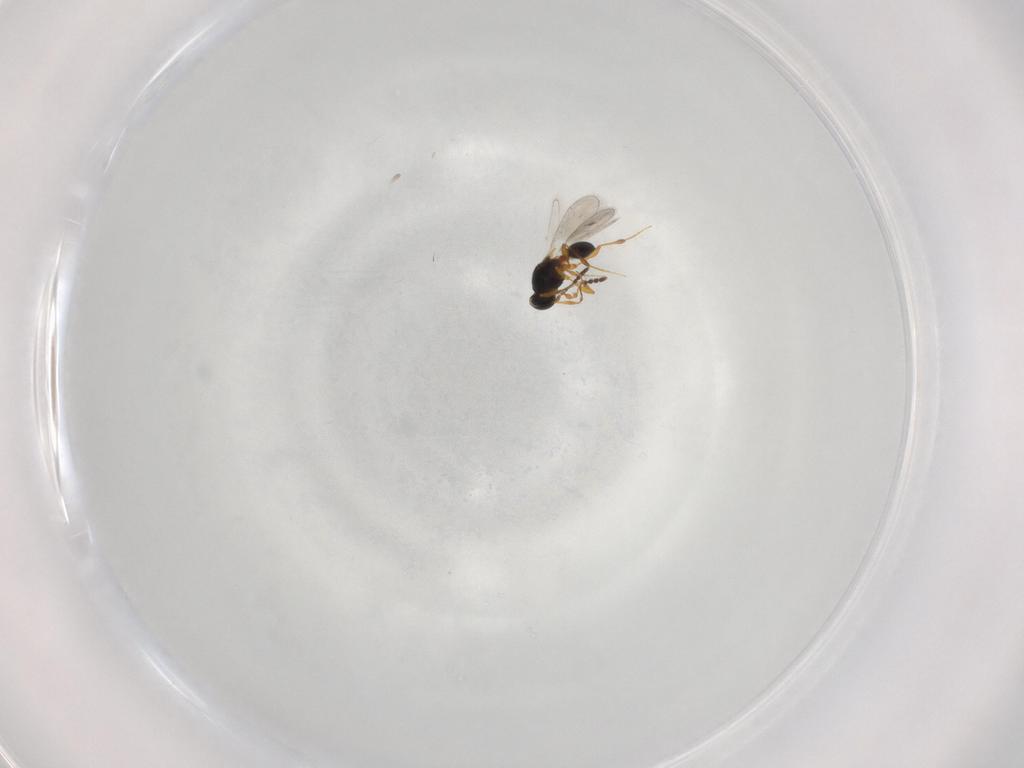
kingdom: Animalia
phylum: Arthropoda
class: Insecta
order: Hymenoptera
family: Platygastridae
